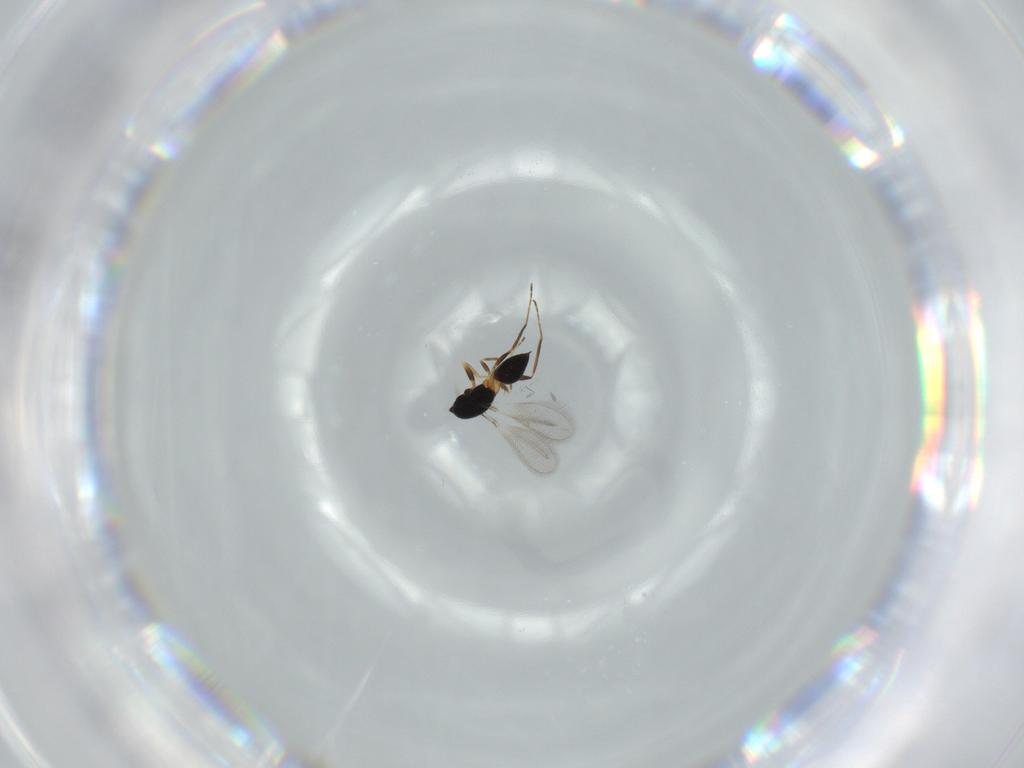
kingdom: Animalia
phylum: Arthropoda
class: Insecta
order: Hymenoptera
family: Mymaridae
